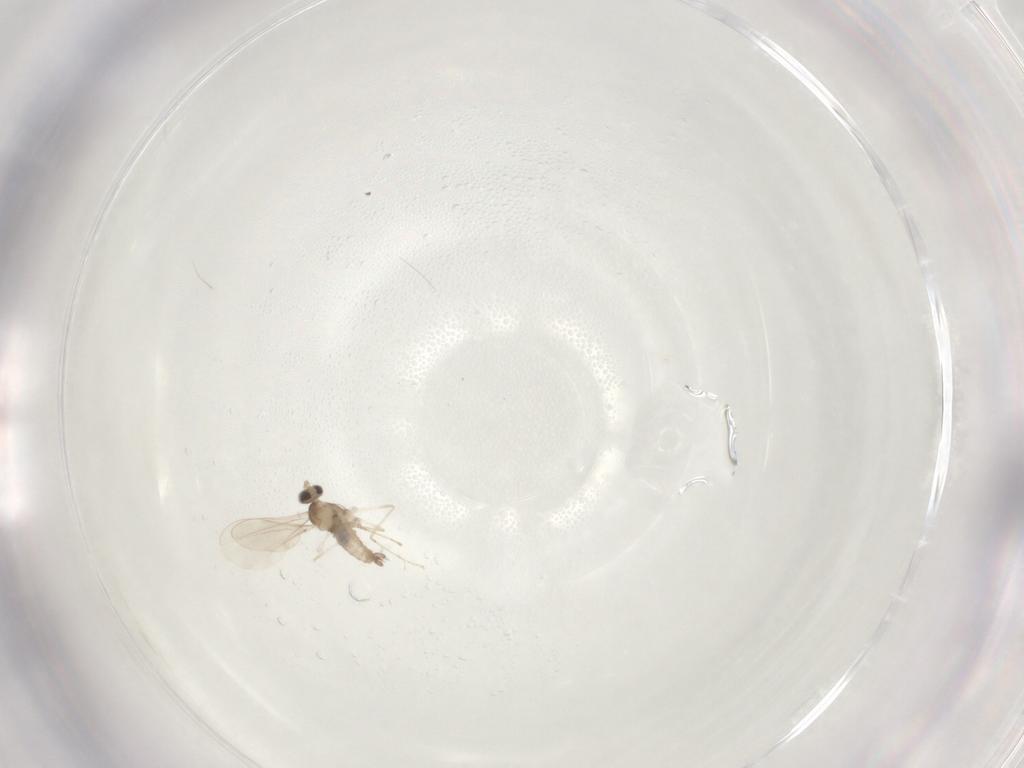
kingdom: Animalia
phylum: Arthropoda
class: Insecta
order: Diptera
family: Cecidomyiidae
